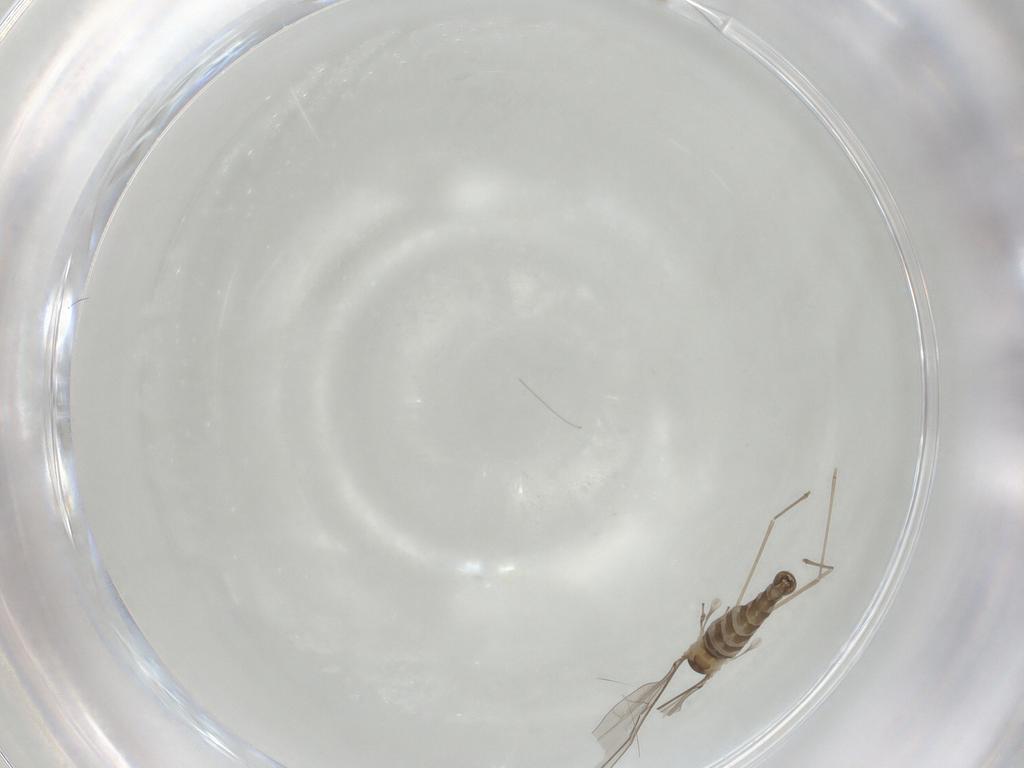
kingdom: Animalia
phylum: Arthropoda
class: Insecta
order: Diptera
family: Cecidomyiidae
